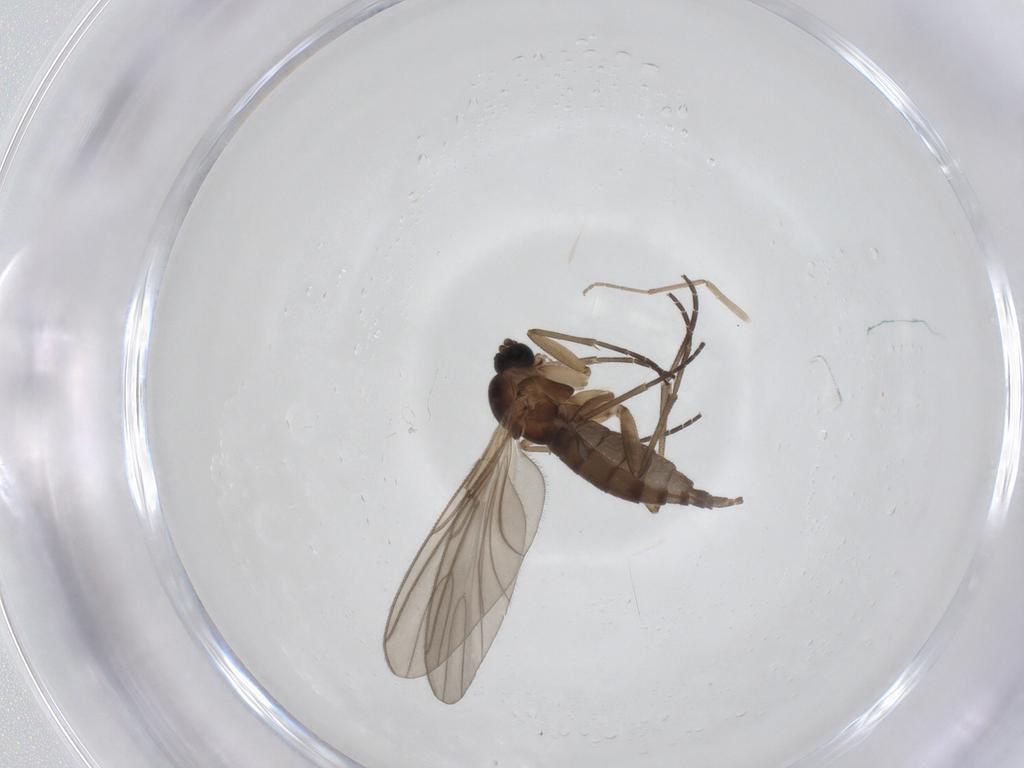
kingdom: Animalia
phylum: Arthropoda
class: Insecta
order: Diptera
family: Sciaridae
